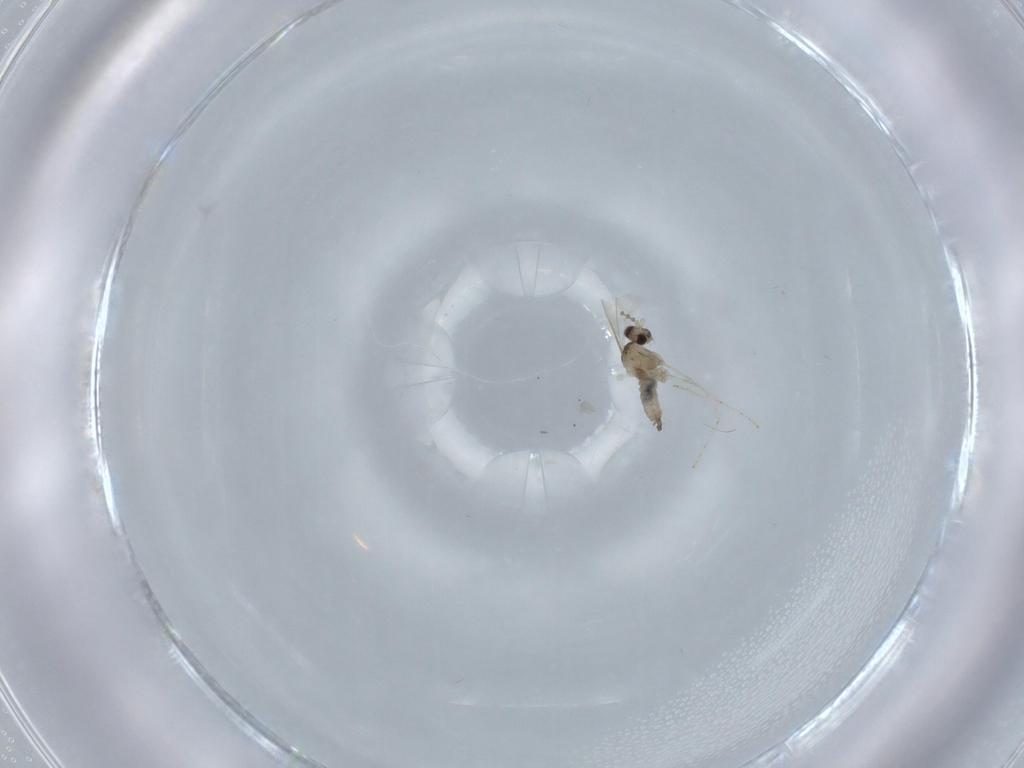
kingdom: Animalia
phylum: Arthropoda
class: Insecta
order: Diptera
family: Cecidomyiidae
